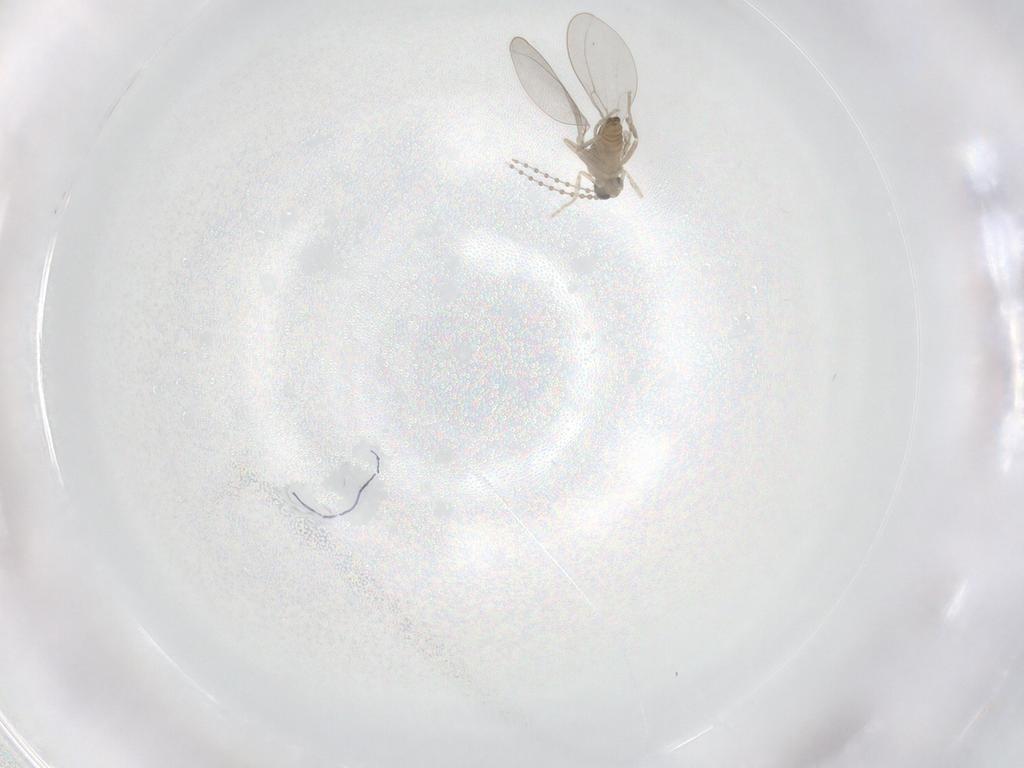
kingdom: Animalia
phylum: Arthropoda
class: Insecta
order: Diptera
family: Cecidomyiidae
